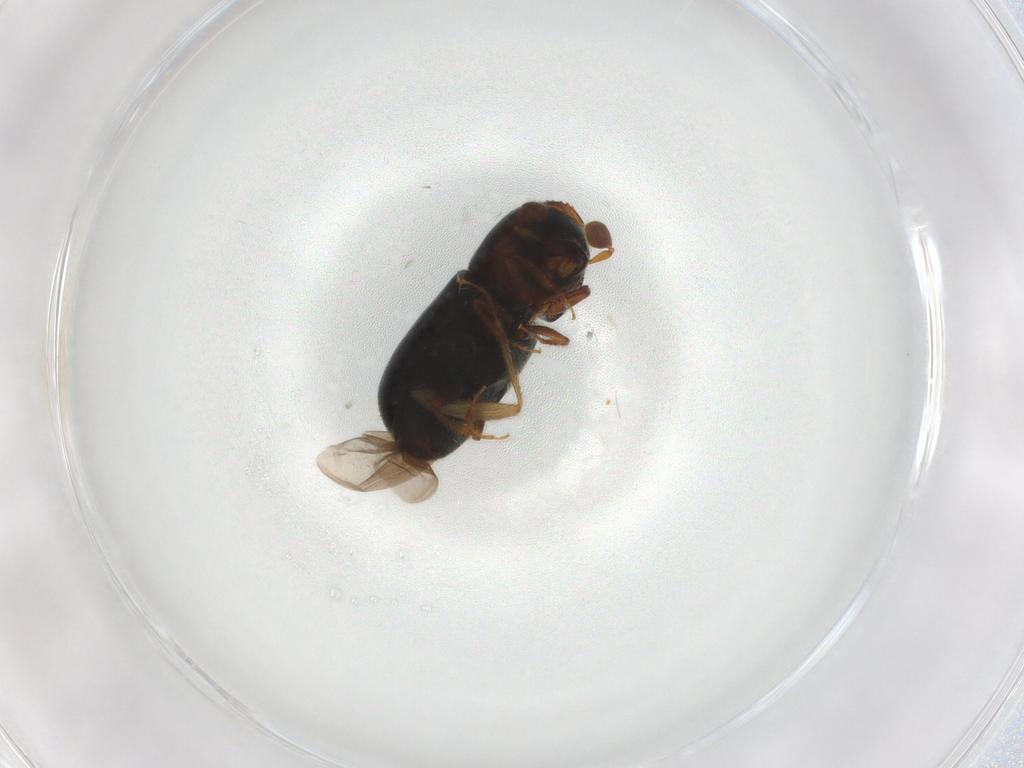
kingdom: Animalia
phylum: Arthropoda
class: Insecta
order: Coleoptera
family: Curculionidae
